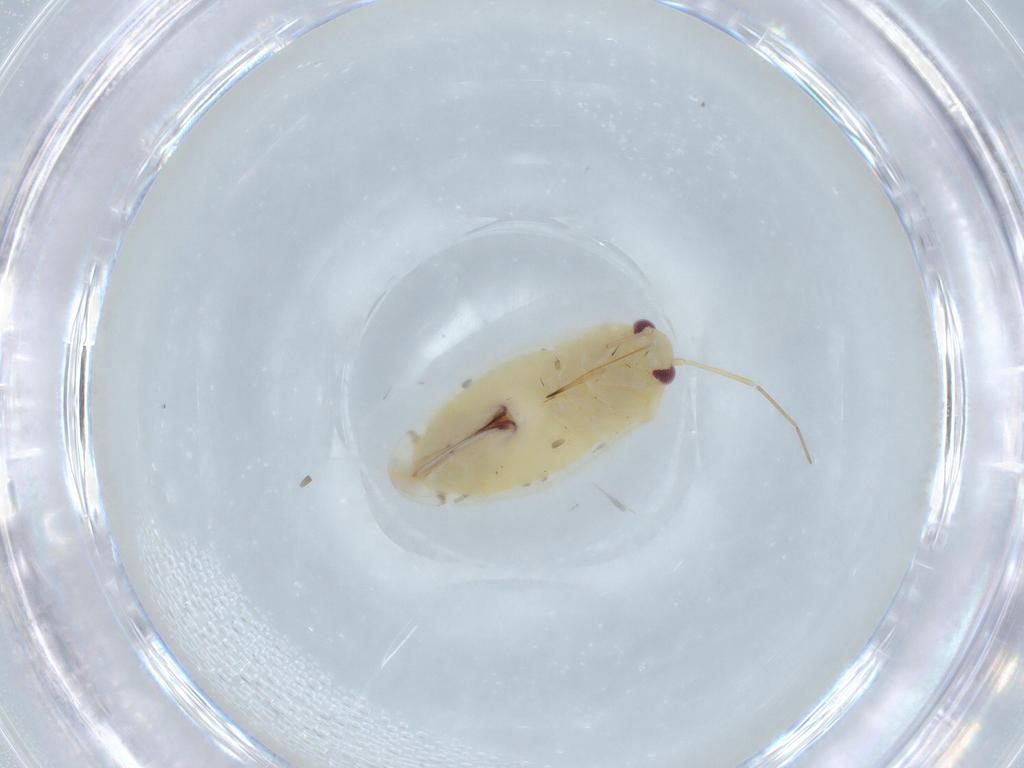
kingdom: Animalia
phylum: Arthropoda
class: Insecta
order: Hemiptera
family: Miridae
